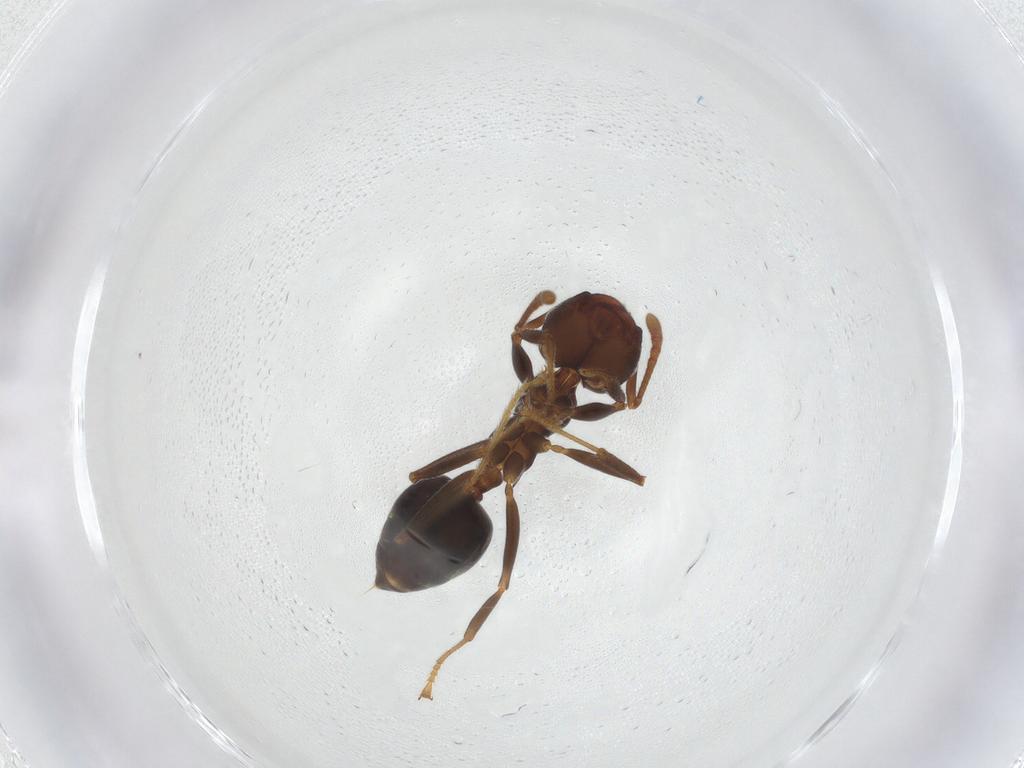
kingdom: Animalia
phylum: Arthropoda
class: Insecta
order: Hymenoptera
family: Formicidae
